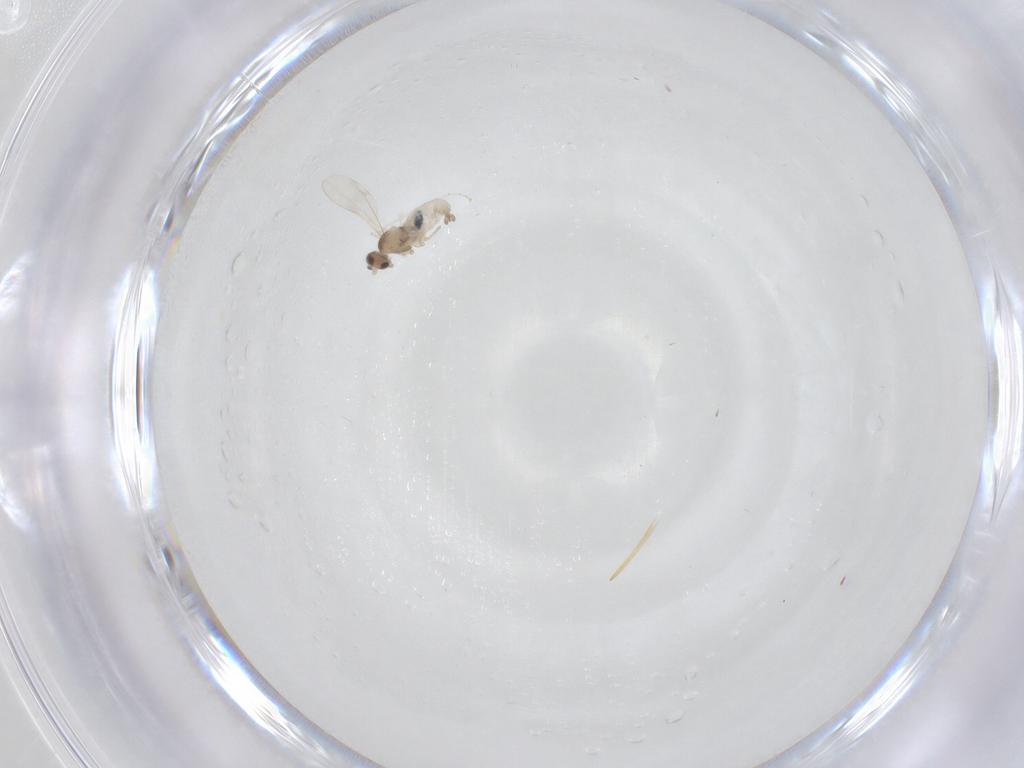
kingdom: Animalia
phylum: Arthropoda
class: Insecta
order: Diptera
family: Cecidomyiidae
